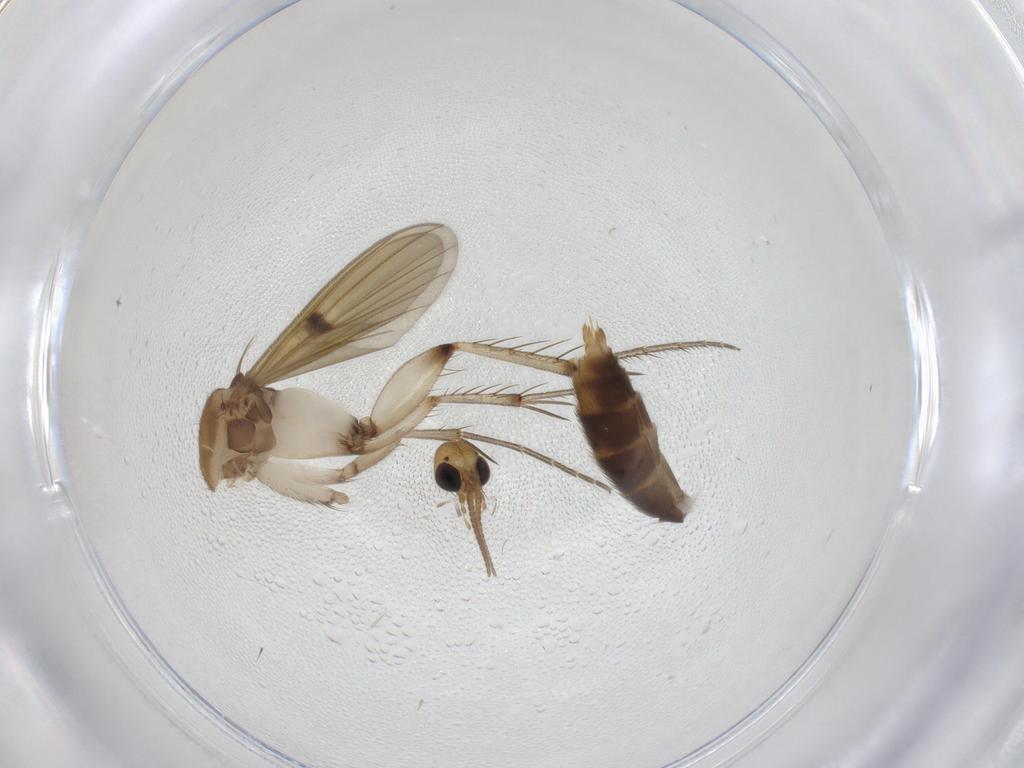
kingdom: Animalia
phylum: Arthropoda
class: Insecta
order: Diptera
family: Mycetophilidae
